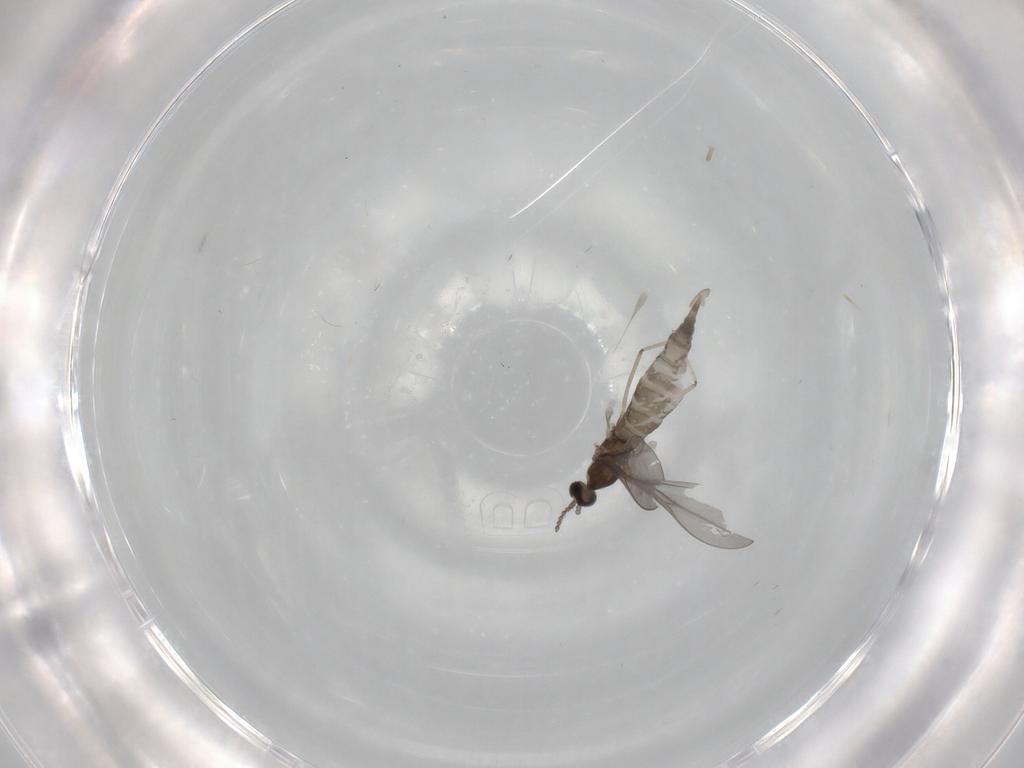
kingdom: Animalia
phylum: Arthropoda
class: Insecta
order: Diptera
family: Cecidomyiidae
